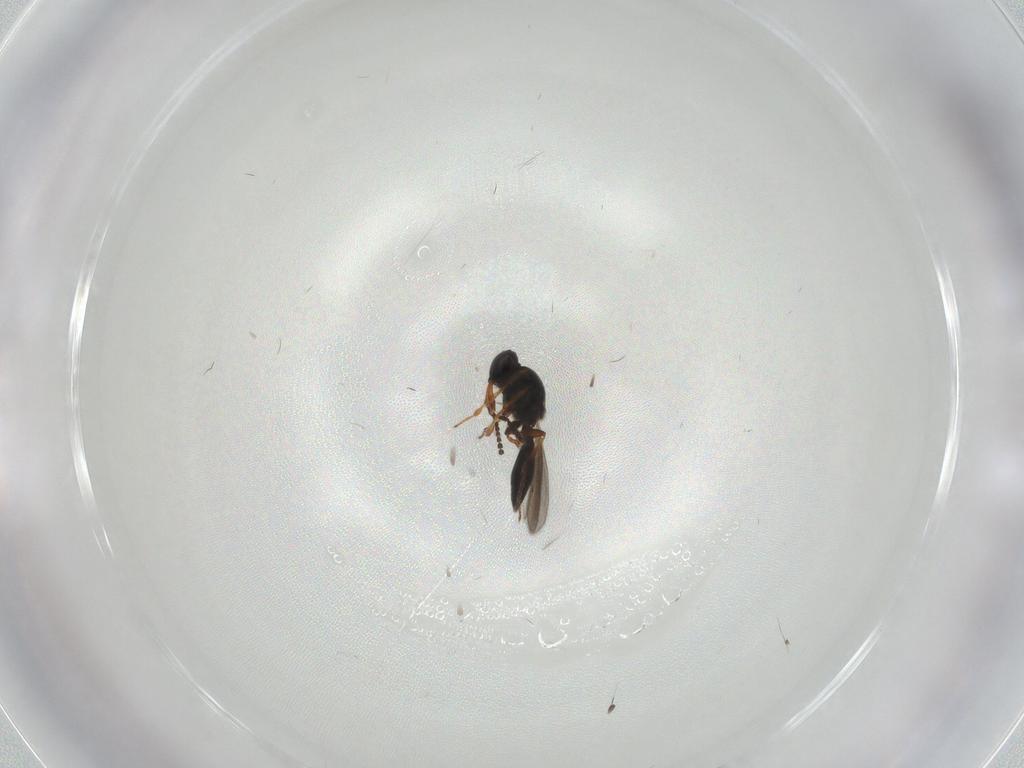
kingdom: Animalia
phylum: Arthropoda
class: Insecta
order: Hymenoptera
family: Platygastridae
